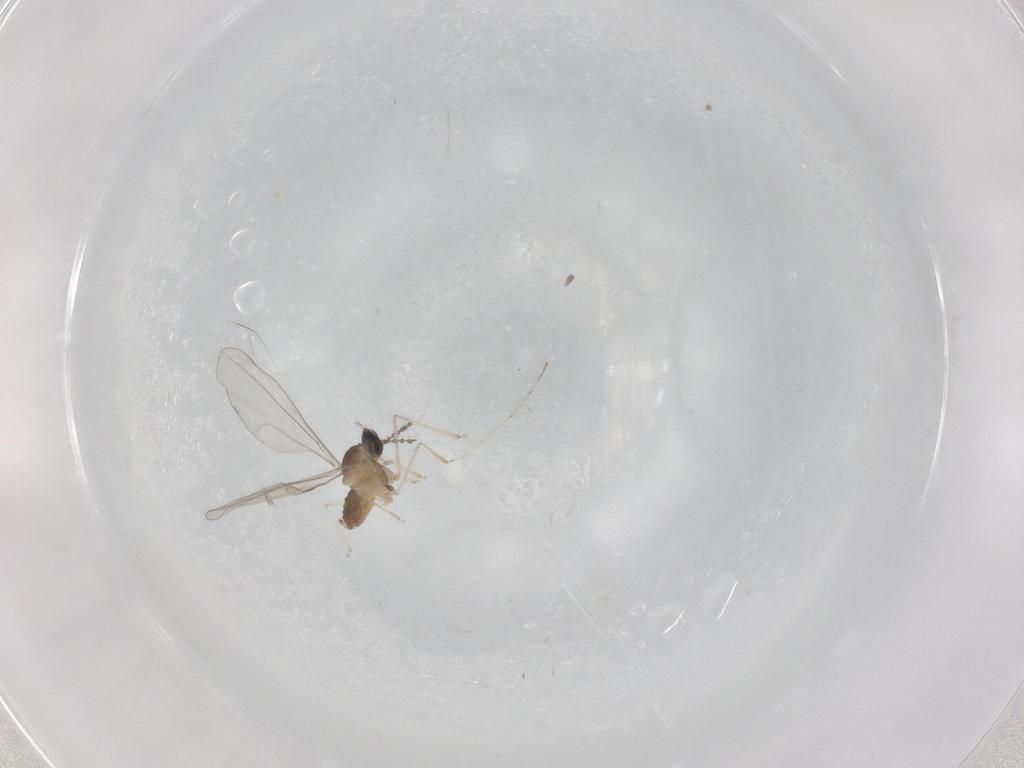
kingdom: Animalia
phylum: Arthropoda
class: Insecta
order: Diptera
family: Cecidomyiidae
